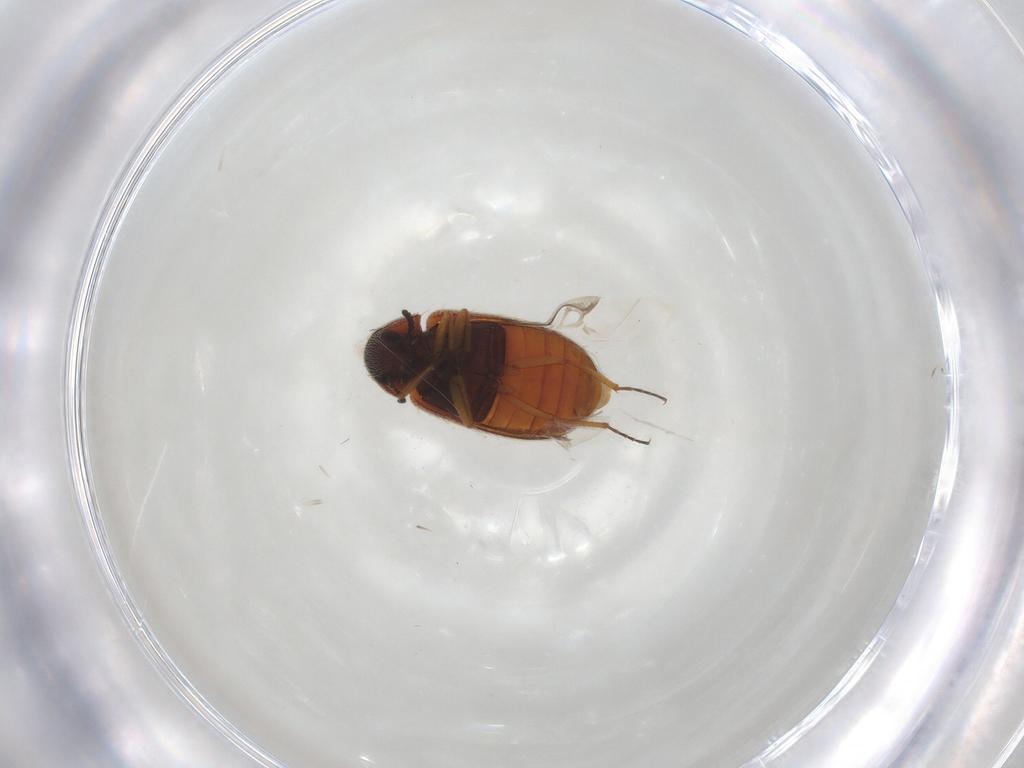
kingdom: Animalia
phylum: Arthropoda
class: Insecta
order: Coleoptera
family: Rhadalidae
